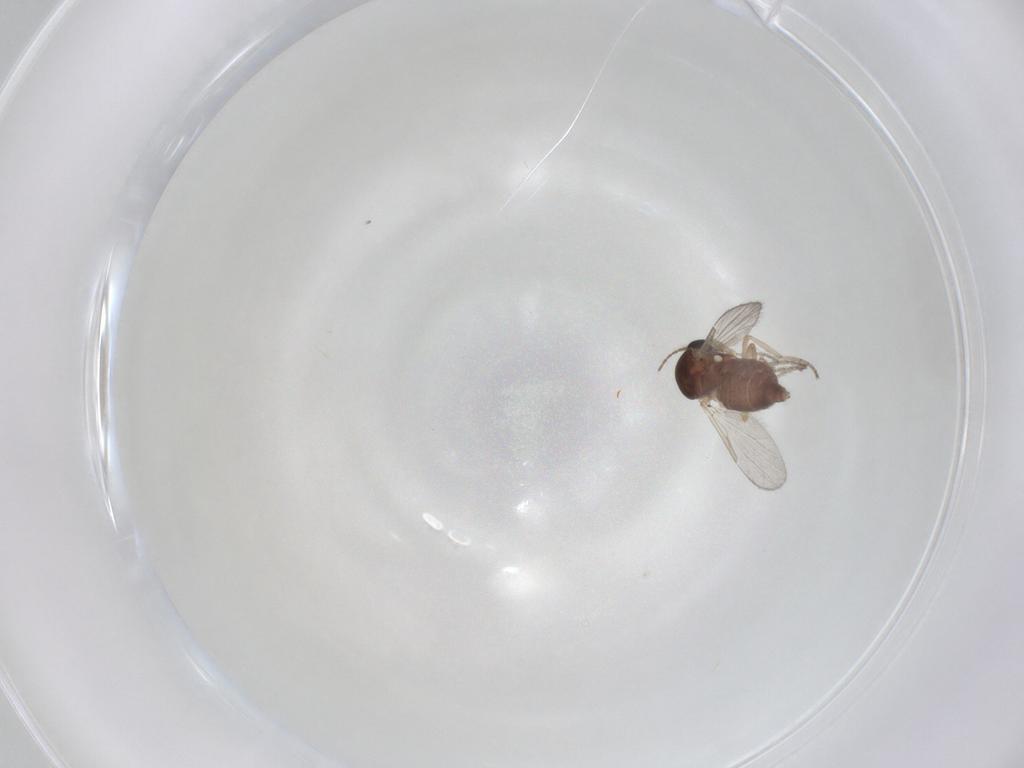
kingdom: Animalia
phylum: Arthropoda
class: Insecta
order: Diptera
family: Cecidomyiidae
